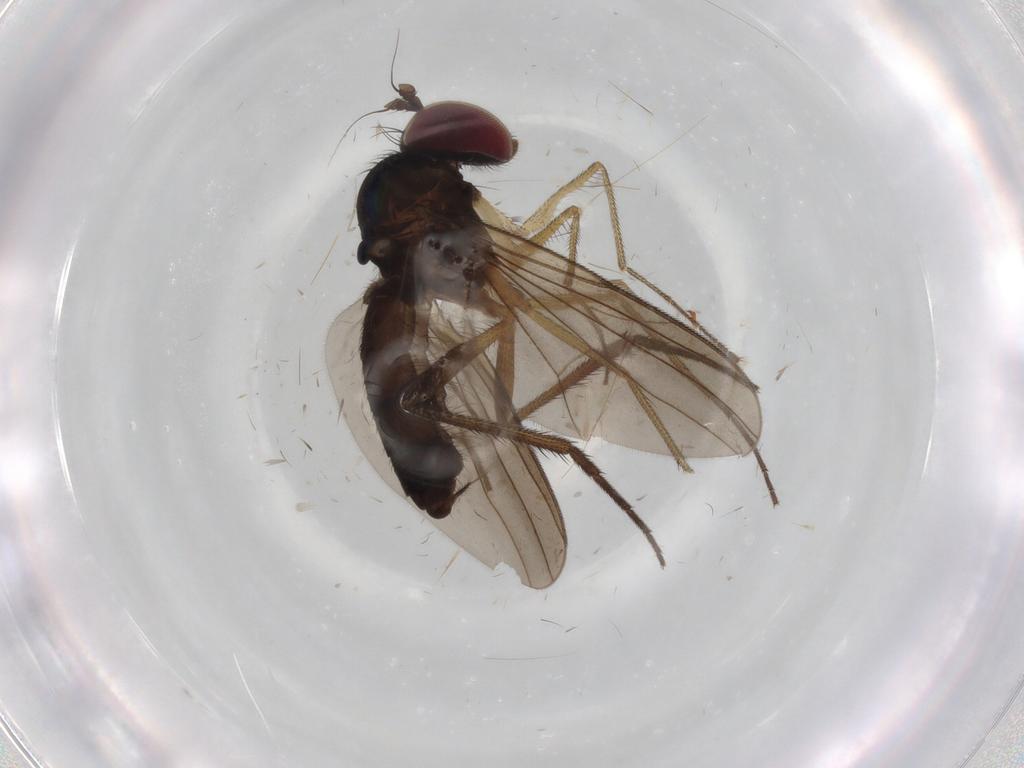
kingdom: Animalia
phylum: Arthropoda
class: Insecta
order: Diptera
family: Dolichopodidae
